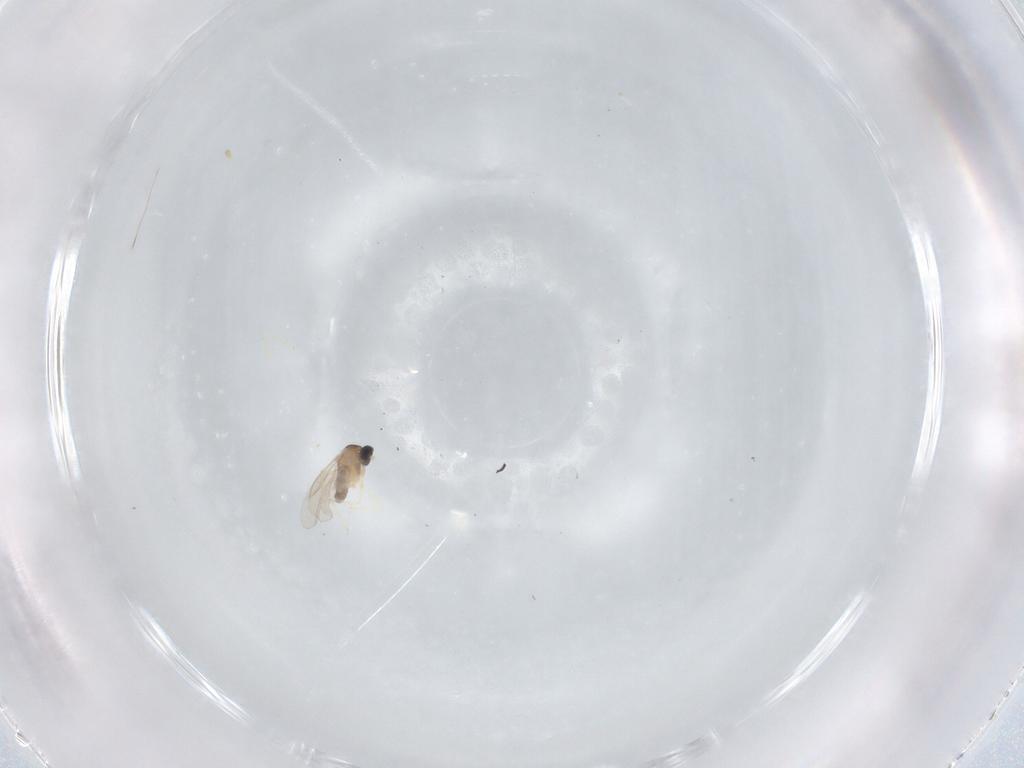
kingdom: Animalia
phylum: Arthropoda
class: Insecta
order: Diptera
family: Cecidomyiidae
